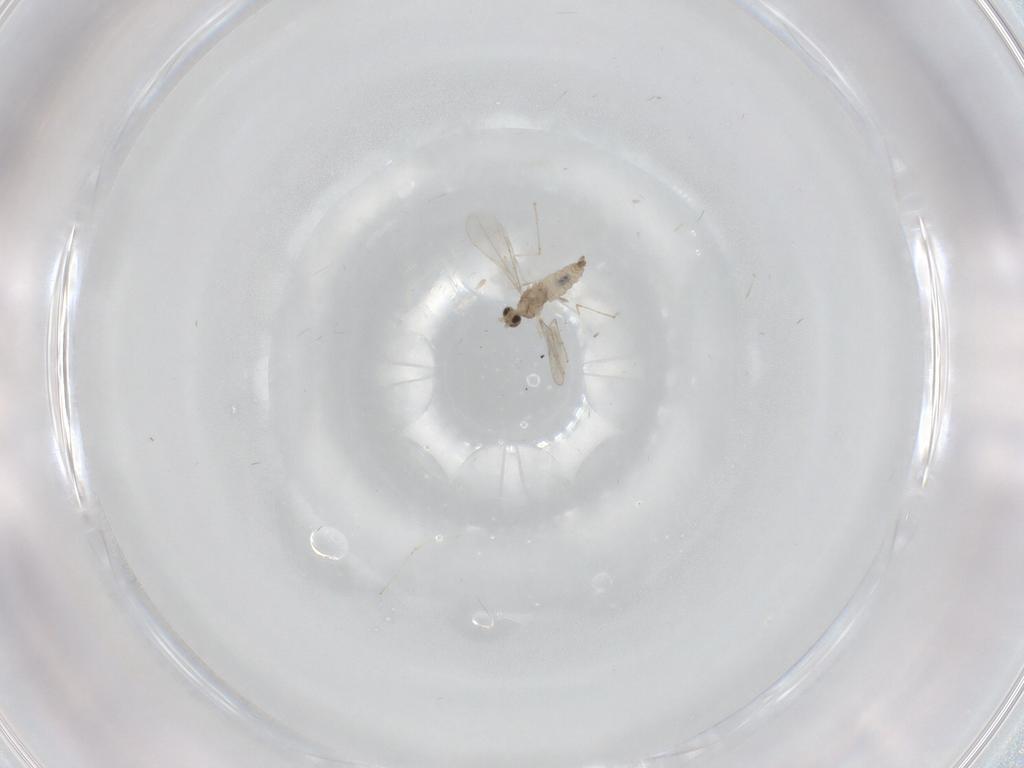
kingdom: Animalia
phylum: Arthropoda
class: Insecta
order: Diptera
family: Cecidomyiidae
